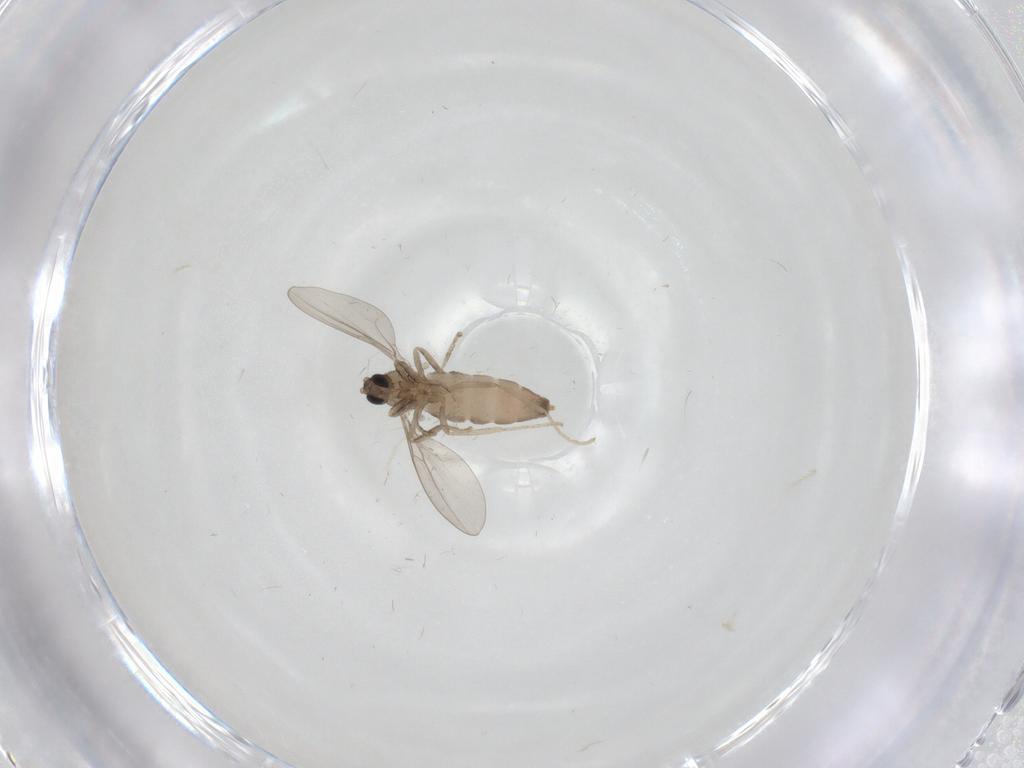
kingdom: Animalia
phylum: Arthropoda
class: Insecta
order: Diptera
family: Cecidomyiidae
